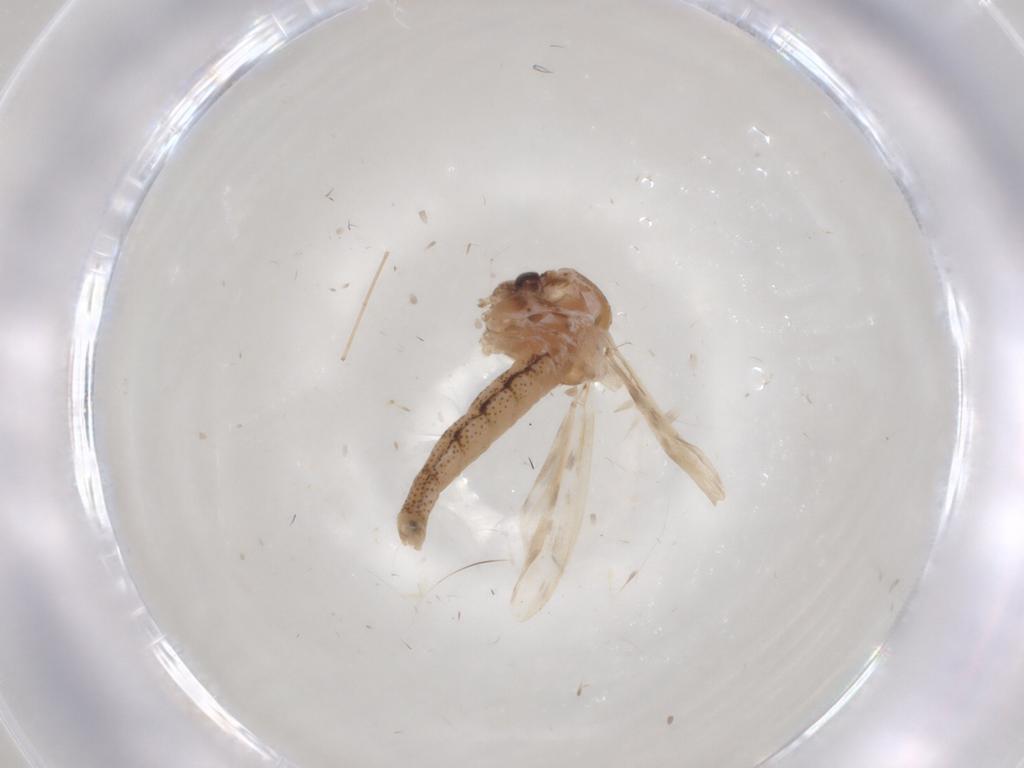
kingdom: Animalia
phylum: Arthropoda
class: Insecta
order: Diptera
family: Chaoboridae
